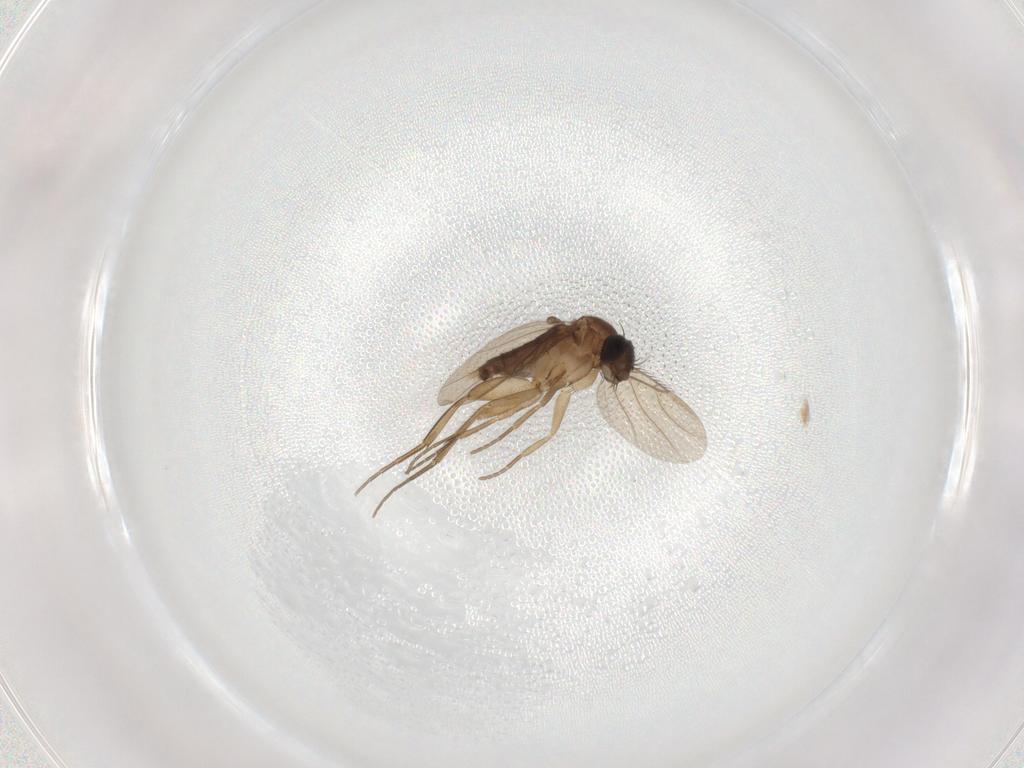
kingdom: Animalia
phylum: Arthropoda
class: Insecta
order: Diptera
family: Phoridae
